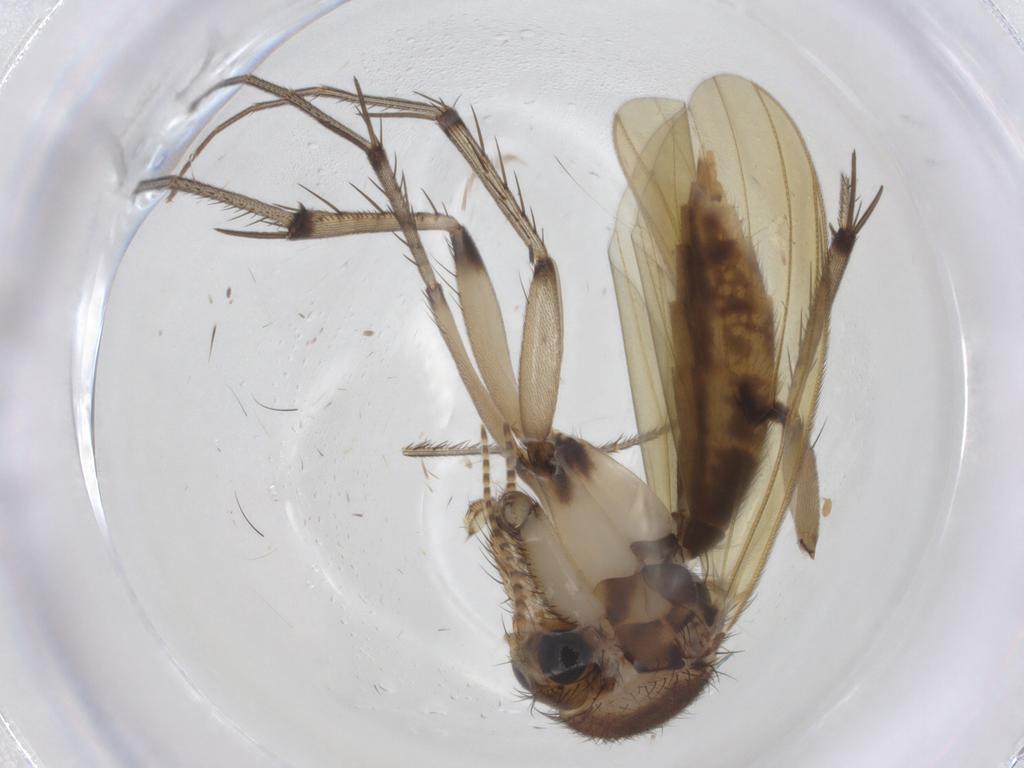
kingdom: Animalia
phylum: Arthropoda
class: Insecta
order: Diptera
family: Mycetophilidae
